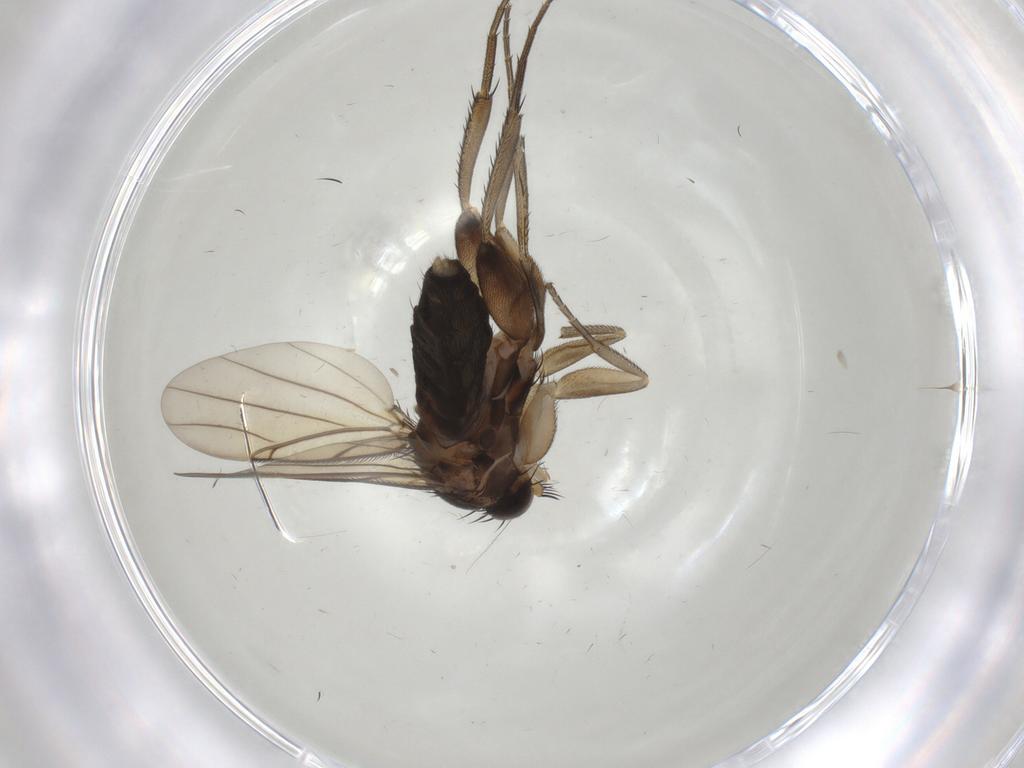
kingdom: Animalia
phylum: Arthropoda
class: Insecta
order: Diptera
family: Phoridae
